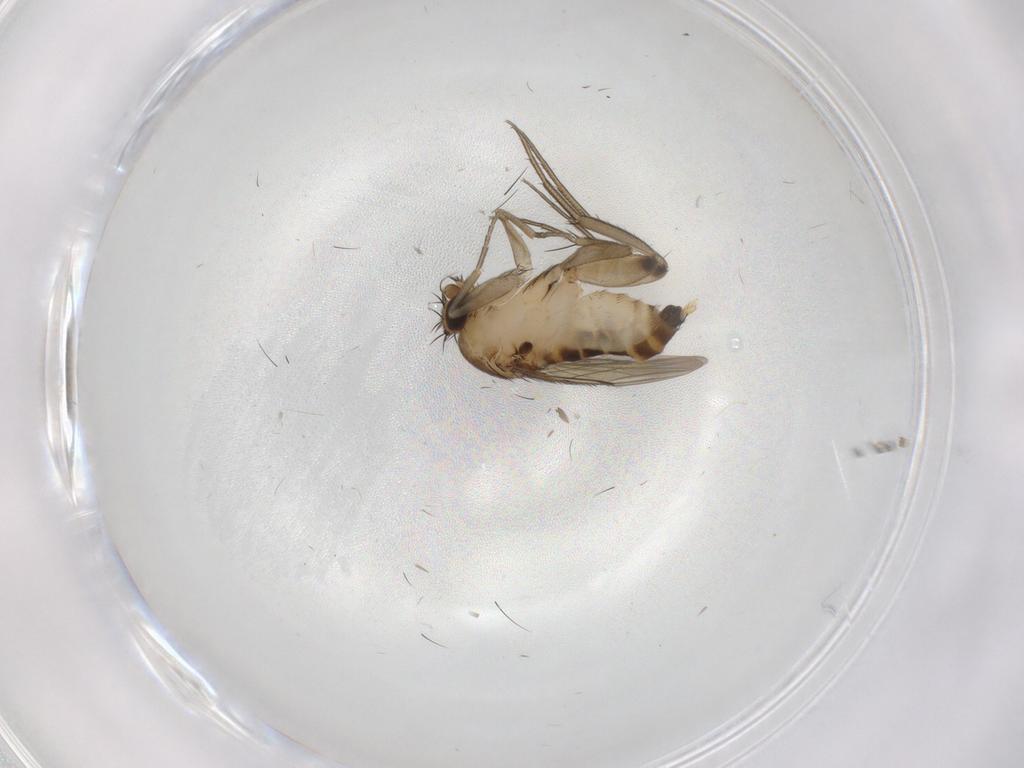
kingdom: Animalia
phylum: Arthropoda
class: Insecta
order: Diptera
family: Phoridae
